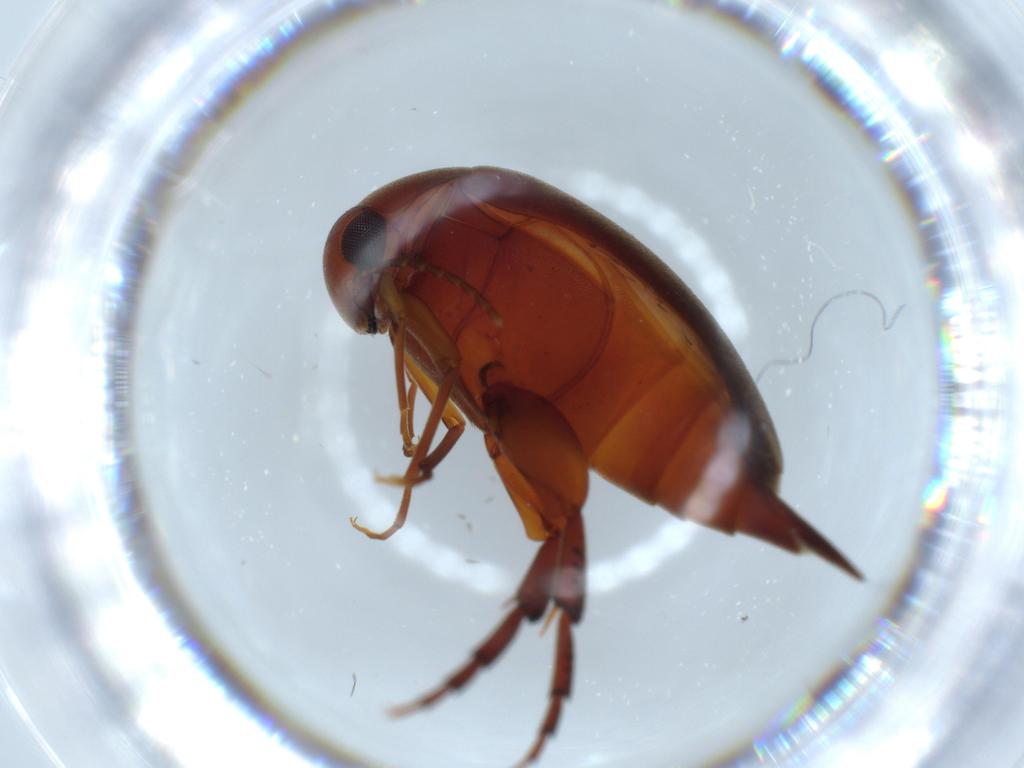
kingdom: Animalia
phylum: Arthropoda
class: Insecta
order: Coleoptera
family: Mordellidae
